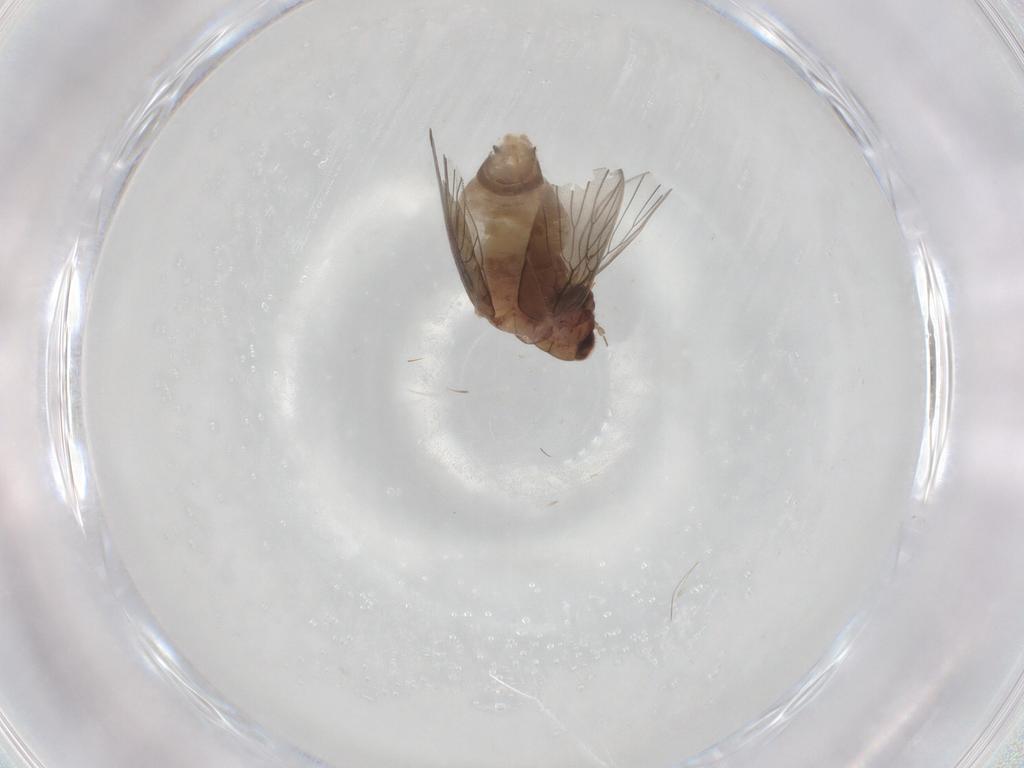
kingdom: Animalia
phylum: Arthropoda
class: Insecta
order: Psocodea
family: Lepidopsocidae
